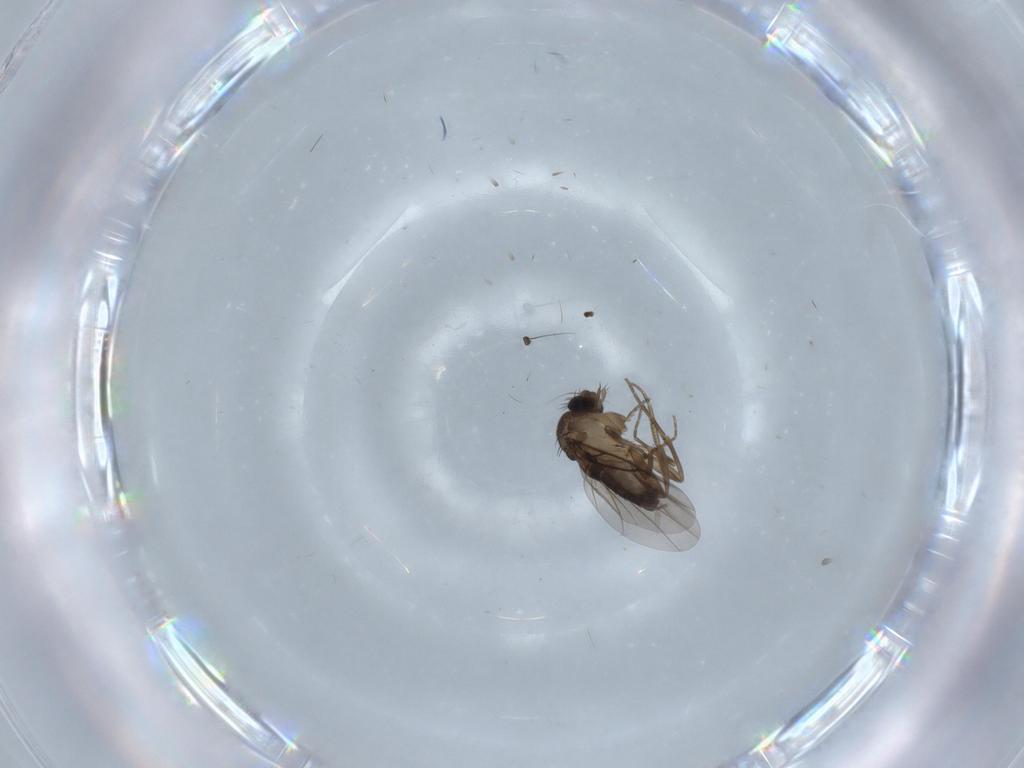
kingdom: Animalia
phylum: Arthropoda
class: Insecta
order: Diptera
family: Phoridae
